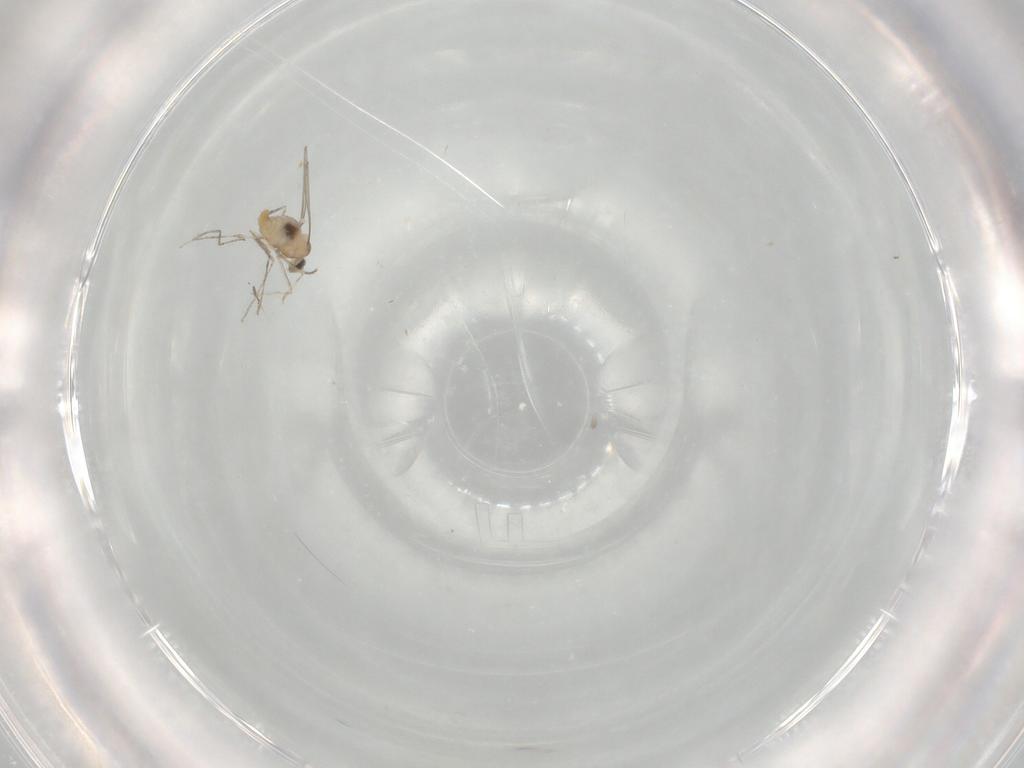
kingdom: Animalia
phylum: Arthropoda
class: Insecta
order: Diptera
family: Cecidomyiidae
